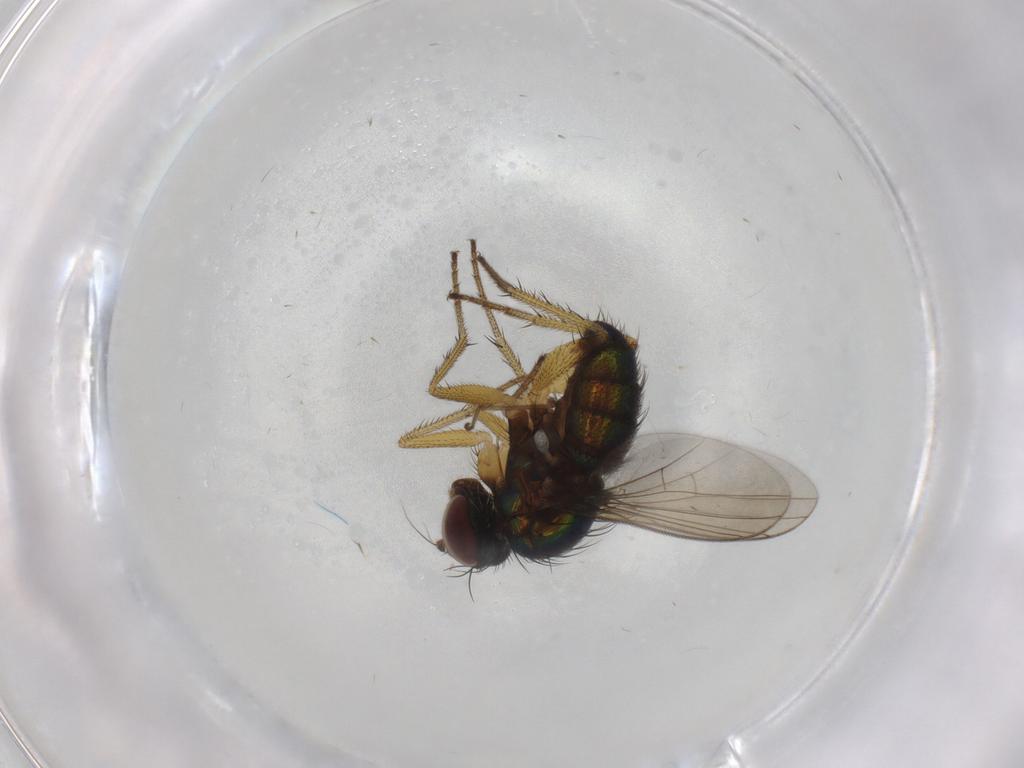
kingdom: Animalia
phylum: Arthropoda
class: Insecta
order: Diptera
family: Dolichopodidae
